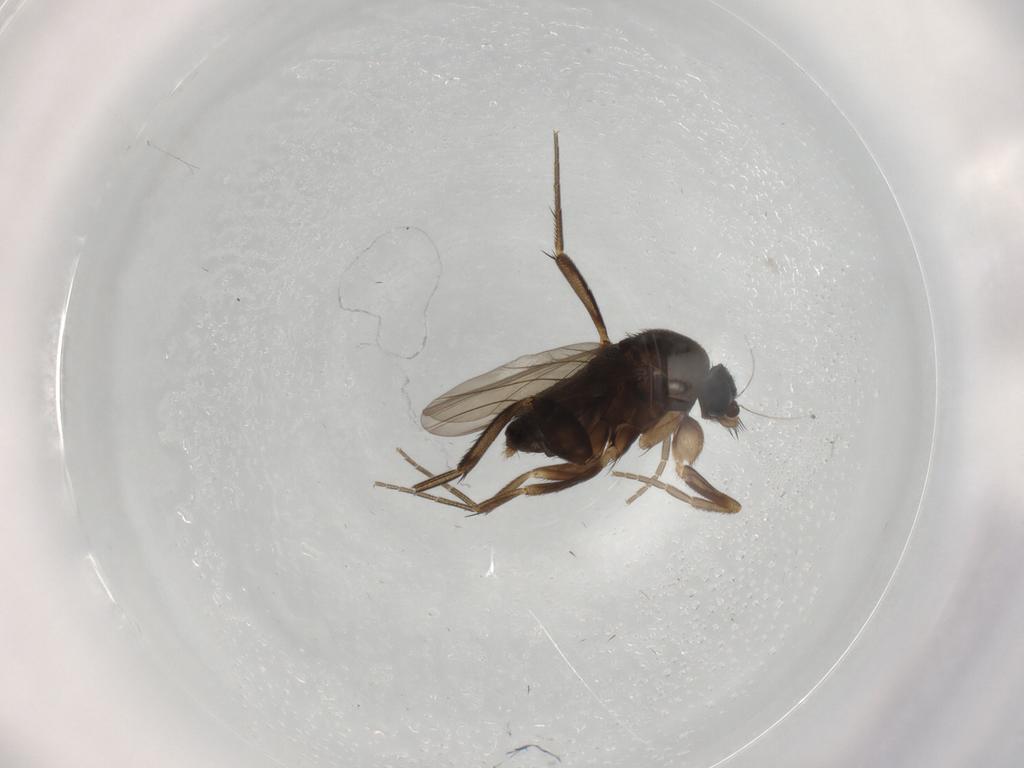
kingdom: Animalia
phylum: Arthropoda
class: Insecta
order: Diptera
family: Phoridae
